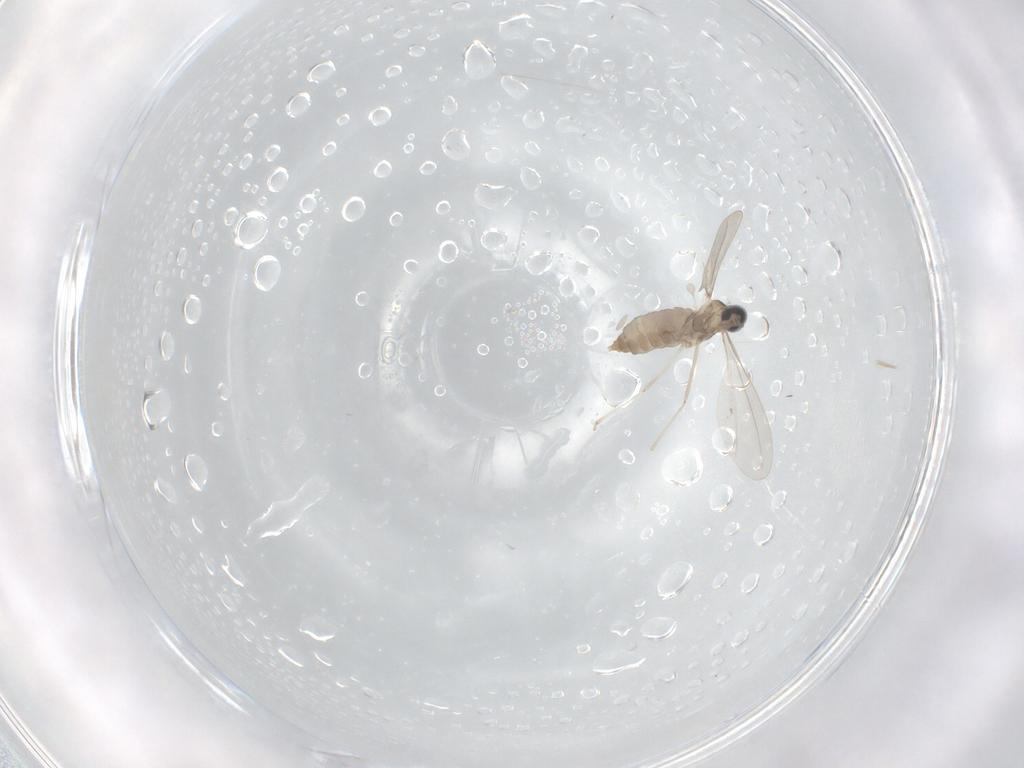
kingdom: Animalia
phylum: Arthropoda
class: Insecta
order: Diptera
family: Cecidomyiidae
